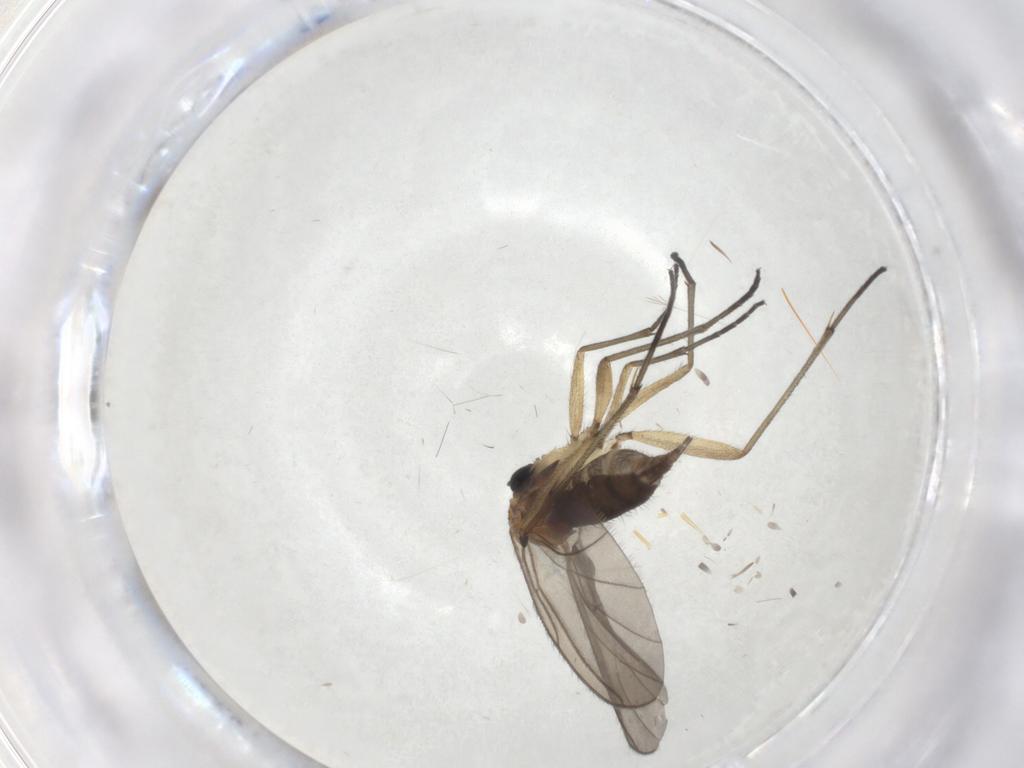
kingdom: Animalia
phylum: Arthropoda
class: Insecta
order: Diptera
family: Sciaridae
